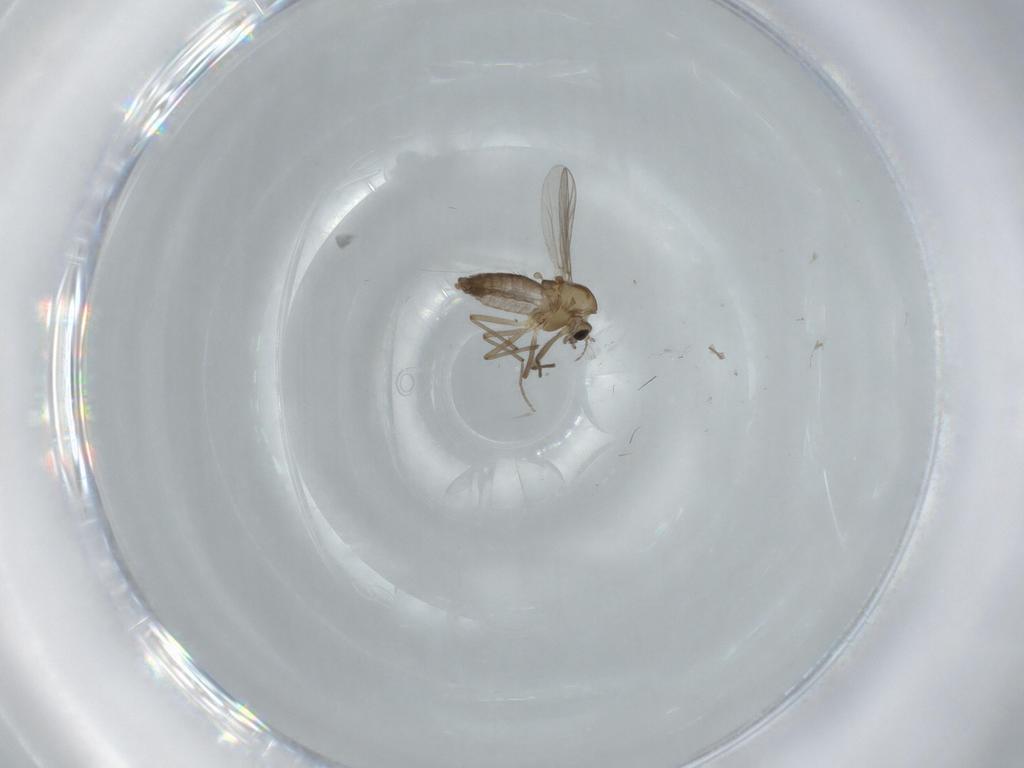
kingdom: Animalia
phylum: Arthropoda
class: Insecta
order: Diptera
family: Chironomidae
